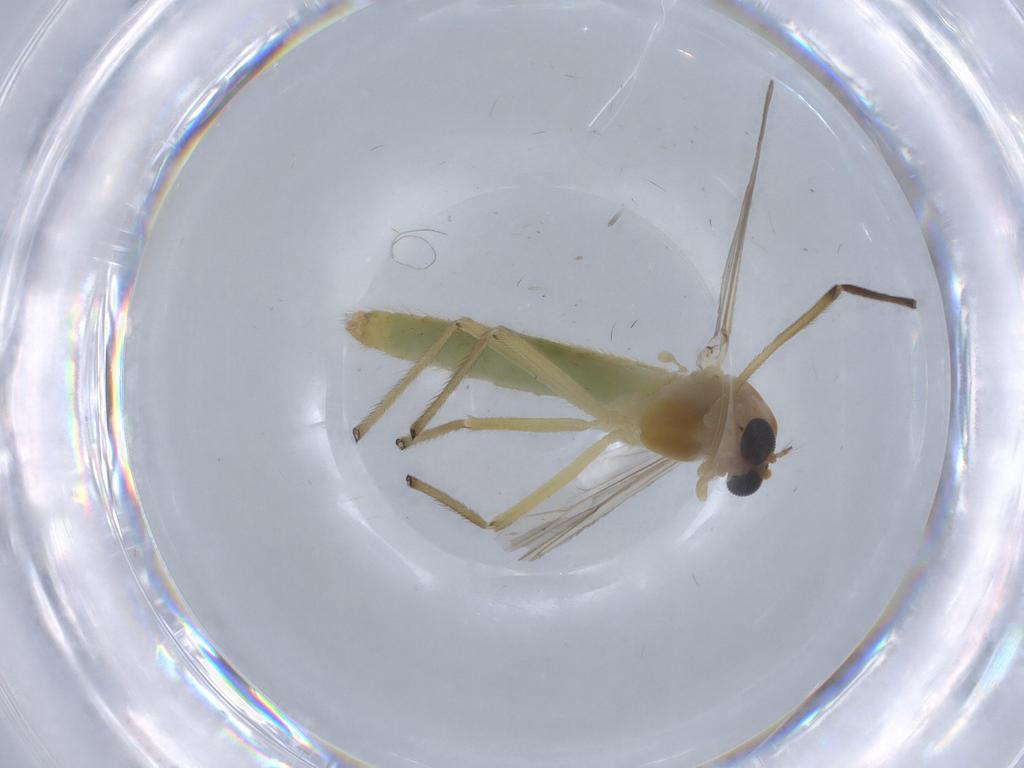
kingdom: Animalia
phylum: Arthropoda
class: Insecta
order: Diptera
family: Chironomidae
